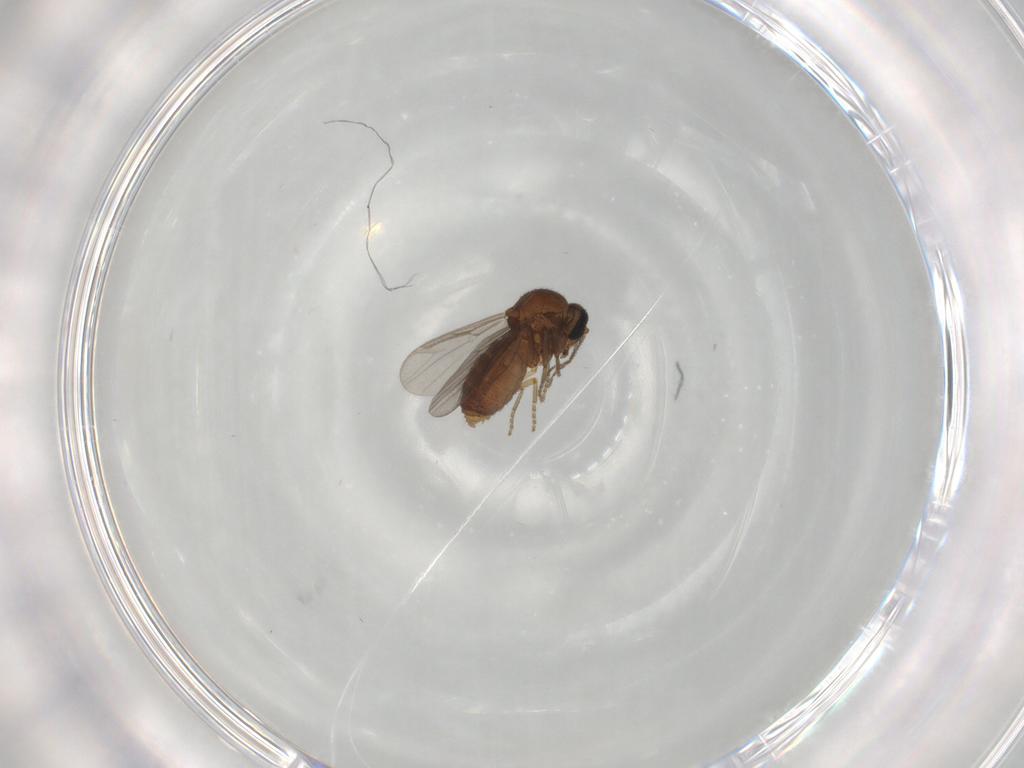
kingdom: Animalia
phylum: Arthropoda
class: Insecta
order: Diptera
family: Ceratopogonidae
